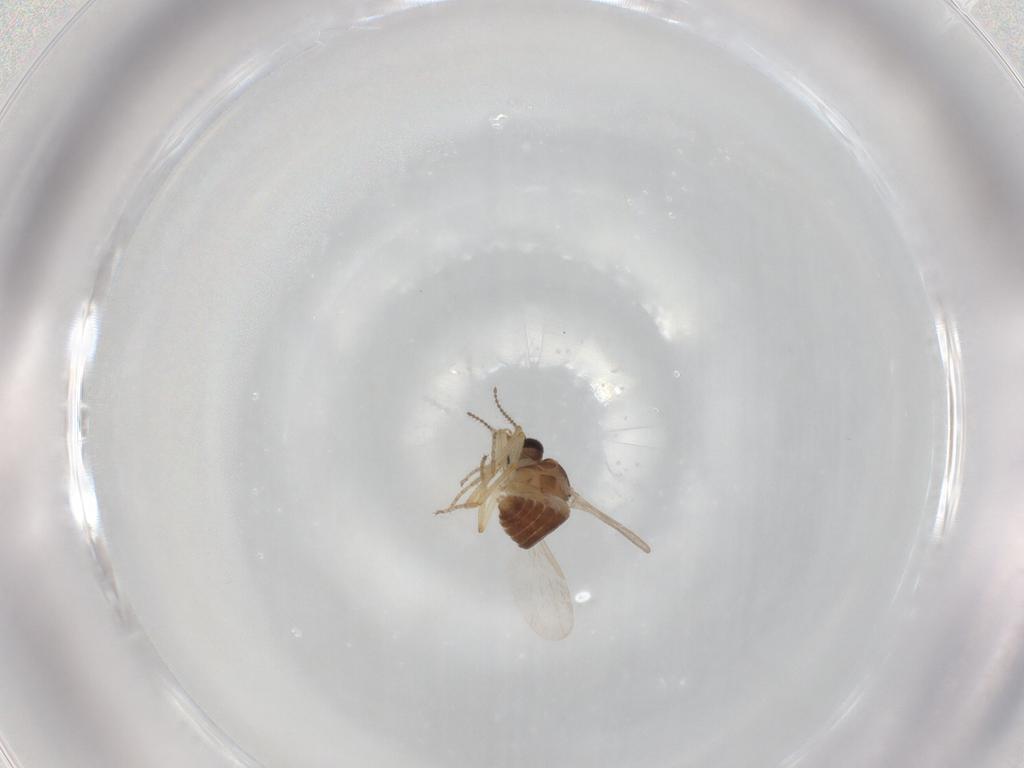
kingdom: Animalia
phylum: Arthropoda
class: Insecta
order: Diptera
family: Ceratopogonidae
